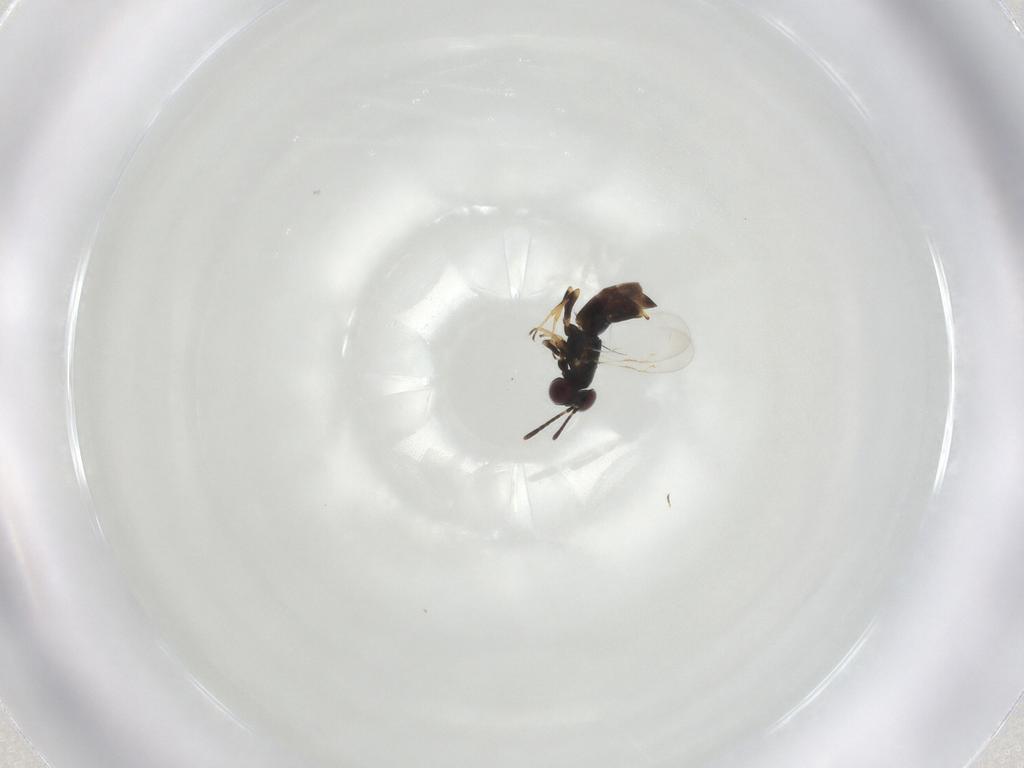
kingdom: Animalia
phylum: Arthropoda
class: Insecta
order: Hymenoptera
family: Encyrtidae
